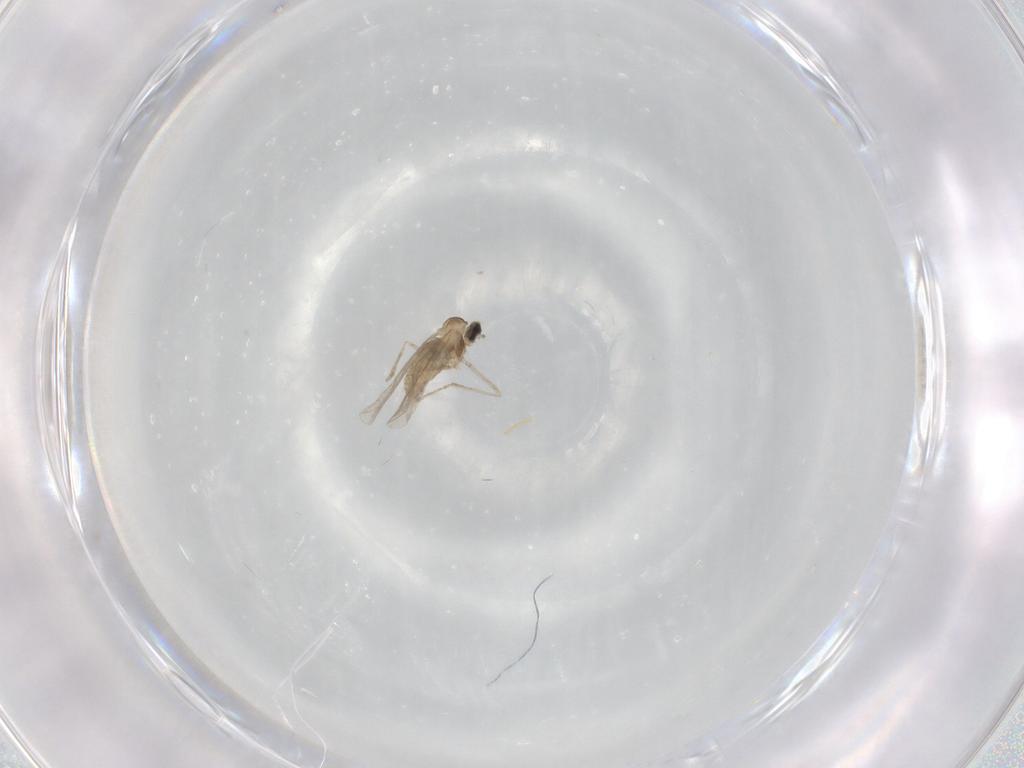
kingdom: Animalia
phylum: Arthropoda
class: Insecta
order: Diptera
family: Cecidomyiidae
